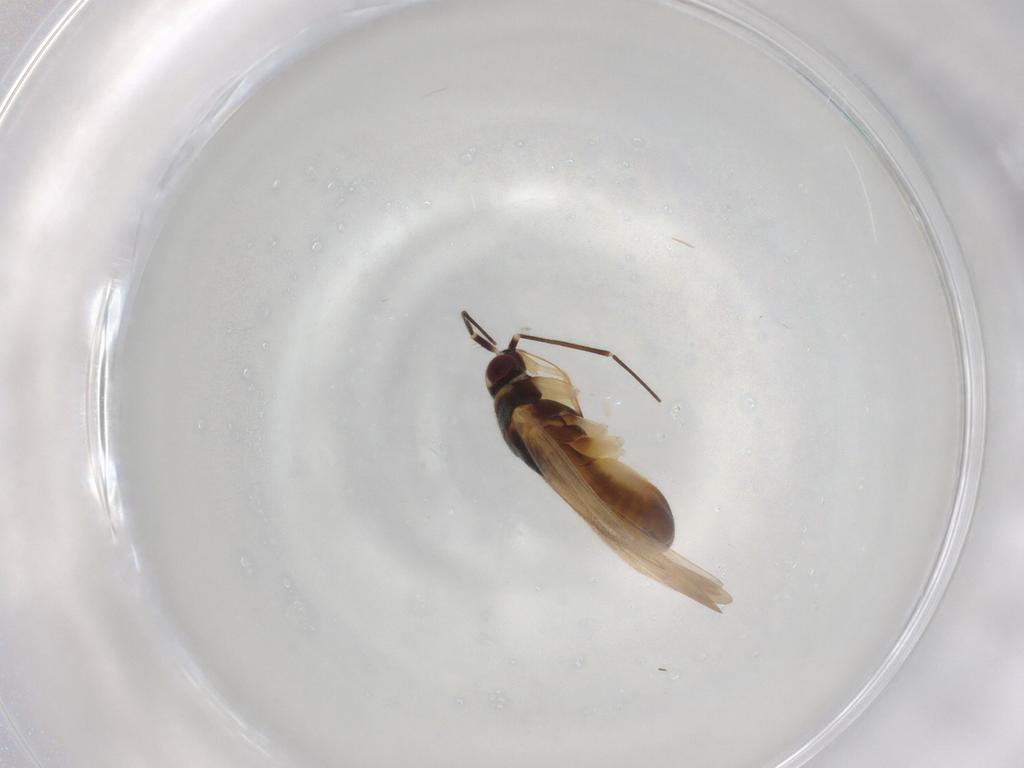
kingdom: Animalia
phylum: Arthropoda
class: Insecta
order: Hemiptera
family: Miridae
